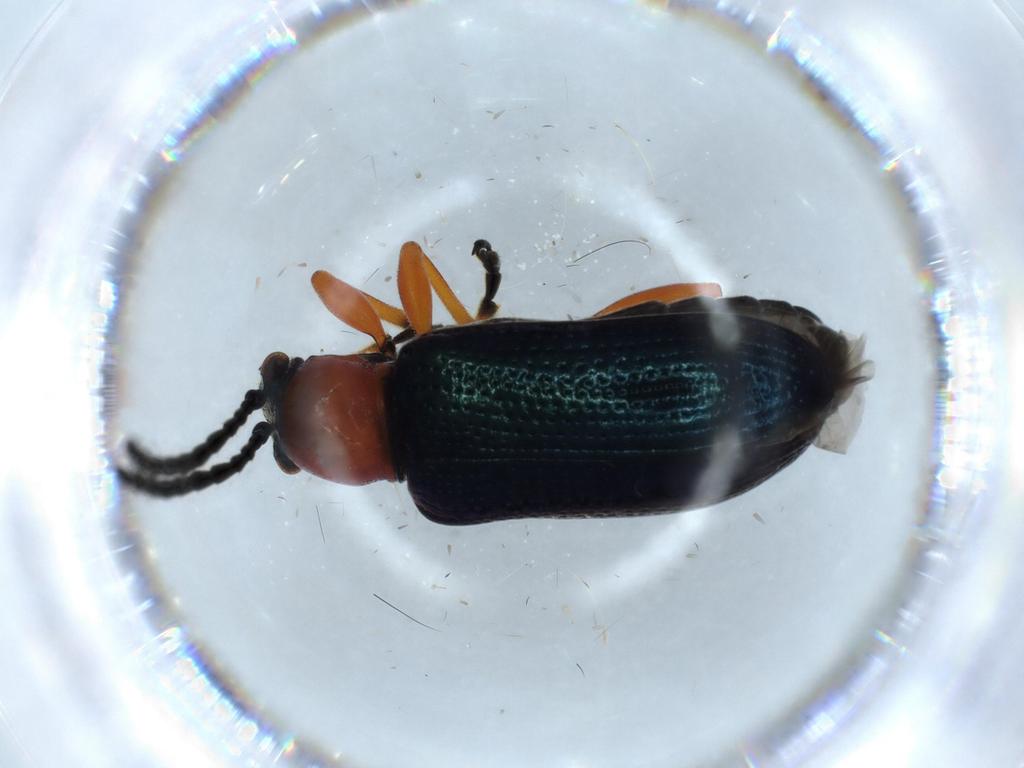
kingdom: Animalia
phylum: Arthropoda
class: Insecta
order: Coleoptera
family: Chrysomelidae
